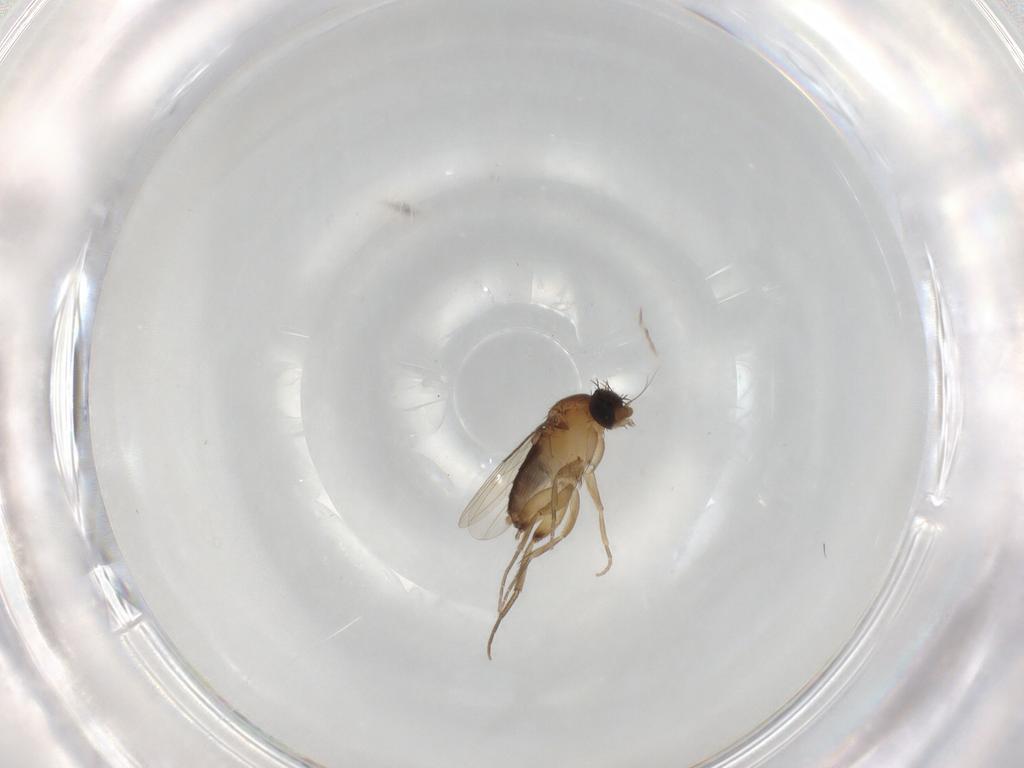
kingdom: Animalia
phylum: Arthropoda
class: Insecta
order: Diptera
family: Phoridae
